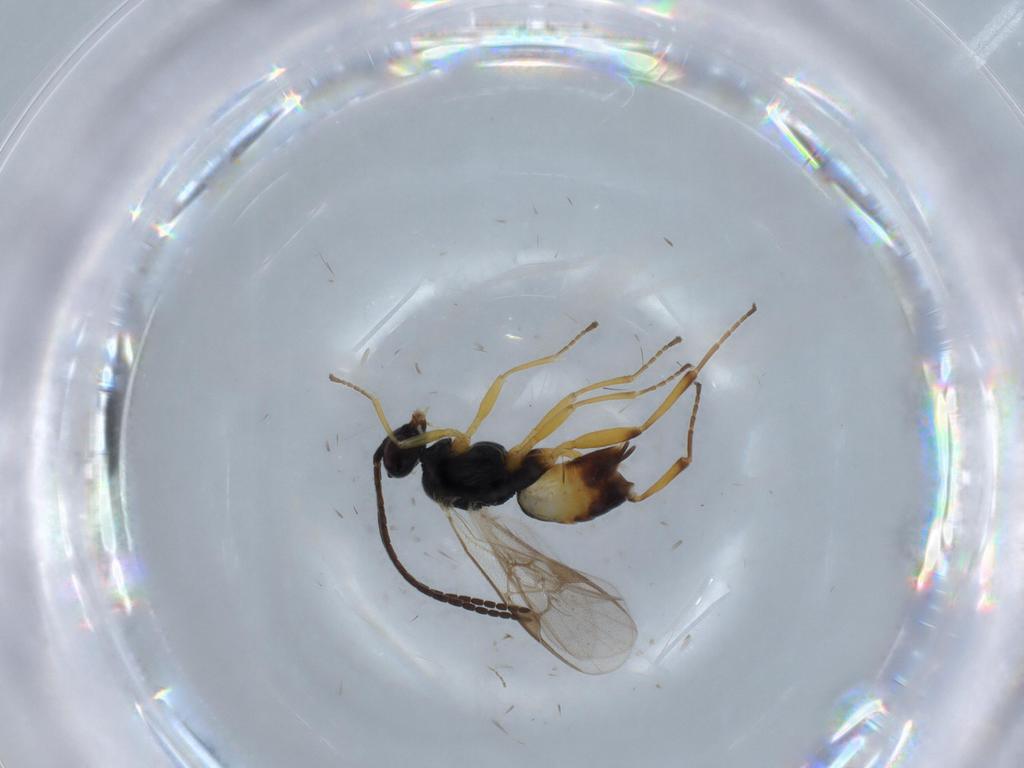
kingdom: Animalia
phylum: Arthropoda
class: Insecta
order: Hymenoptera
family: Braconidae
